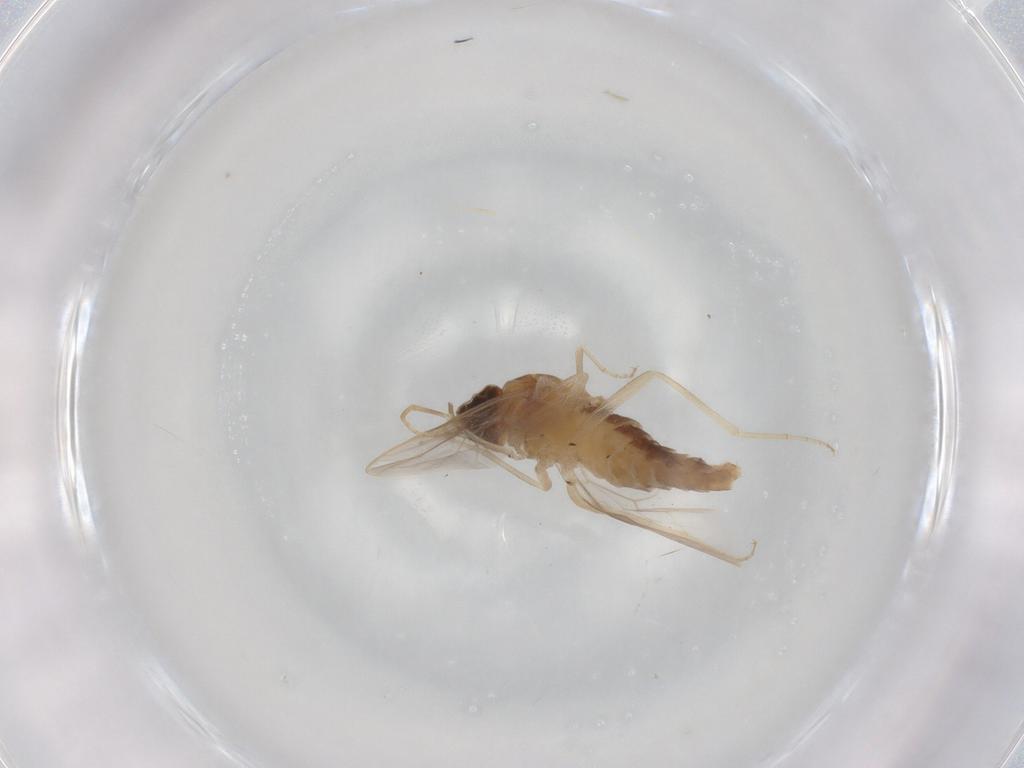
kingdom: Animalia
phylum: Arthropoda
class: Insecta
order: Diptera
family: Scenopinidae
